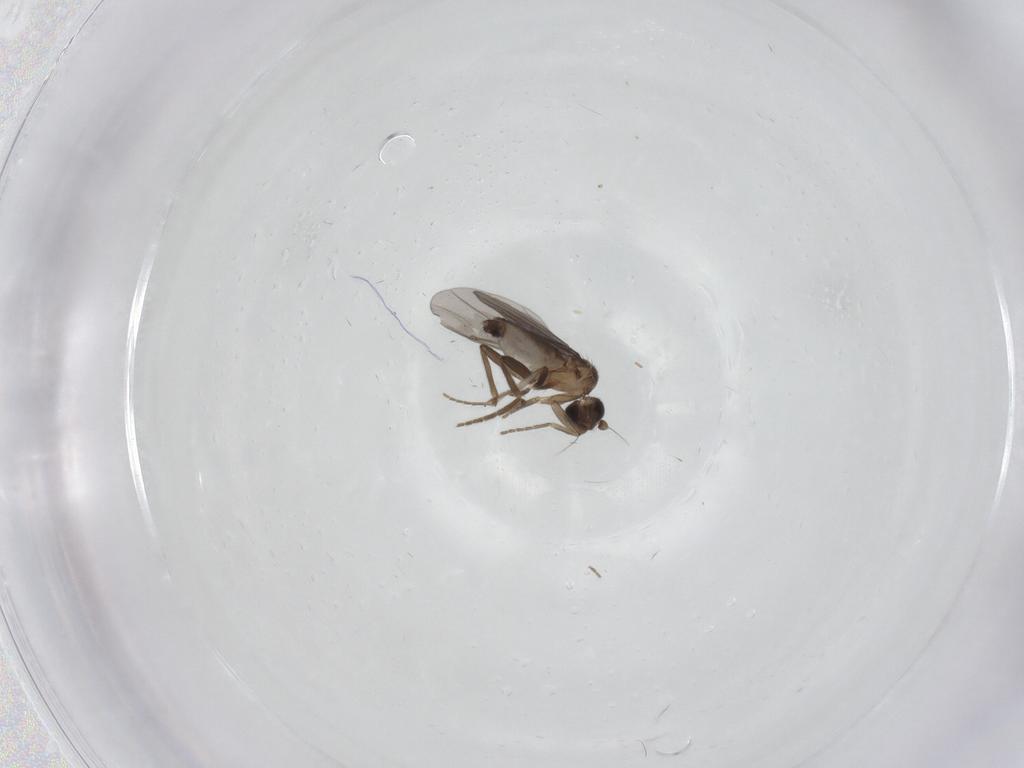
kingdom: Animalia
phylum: Arthropoda
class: Insecta
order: Diptera
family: Phoridae
